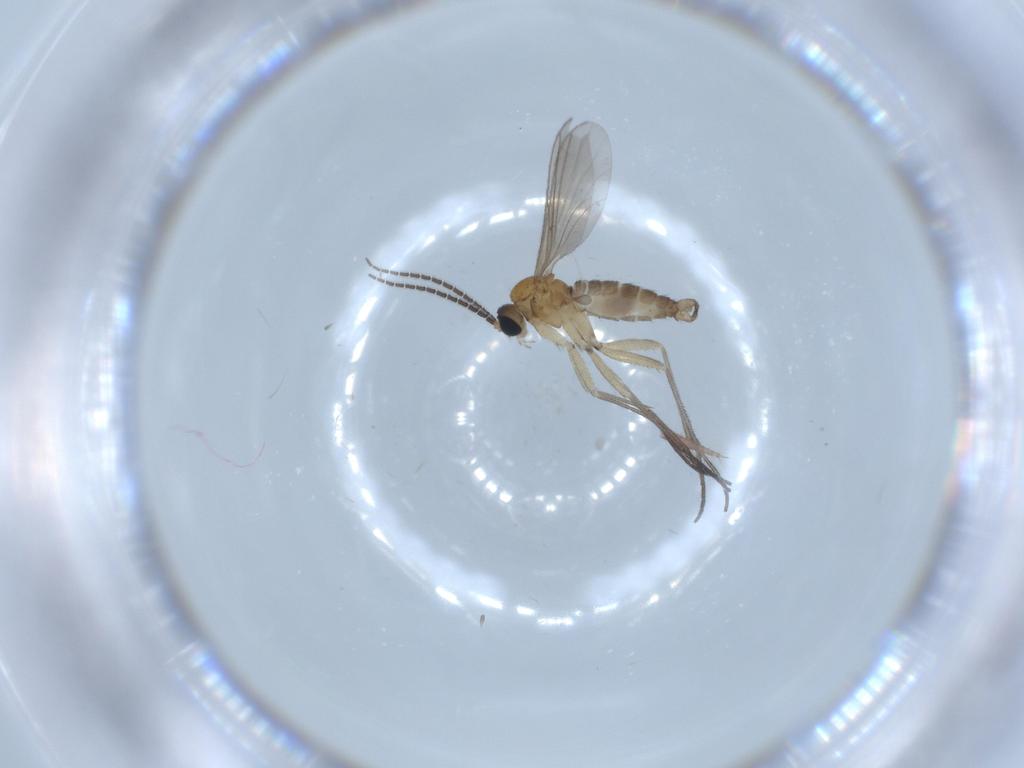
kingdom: Animalia
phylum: Arthropoda
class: Insecta
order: Diptera
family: Sciaridae
